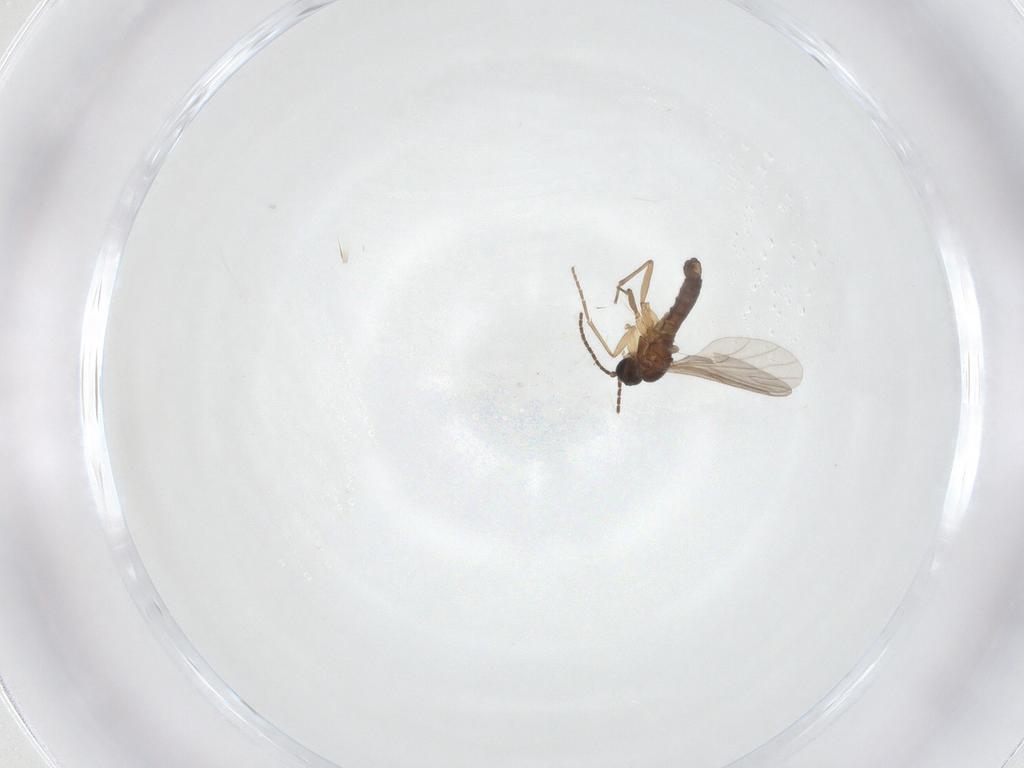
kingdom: Animalia
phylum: Arthropoda
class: Insecta
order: Diptera
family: Sciaridae
